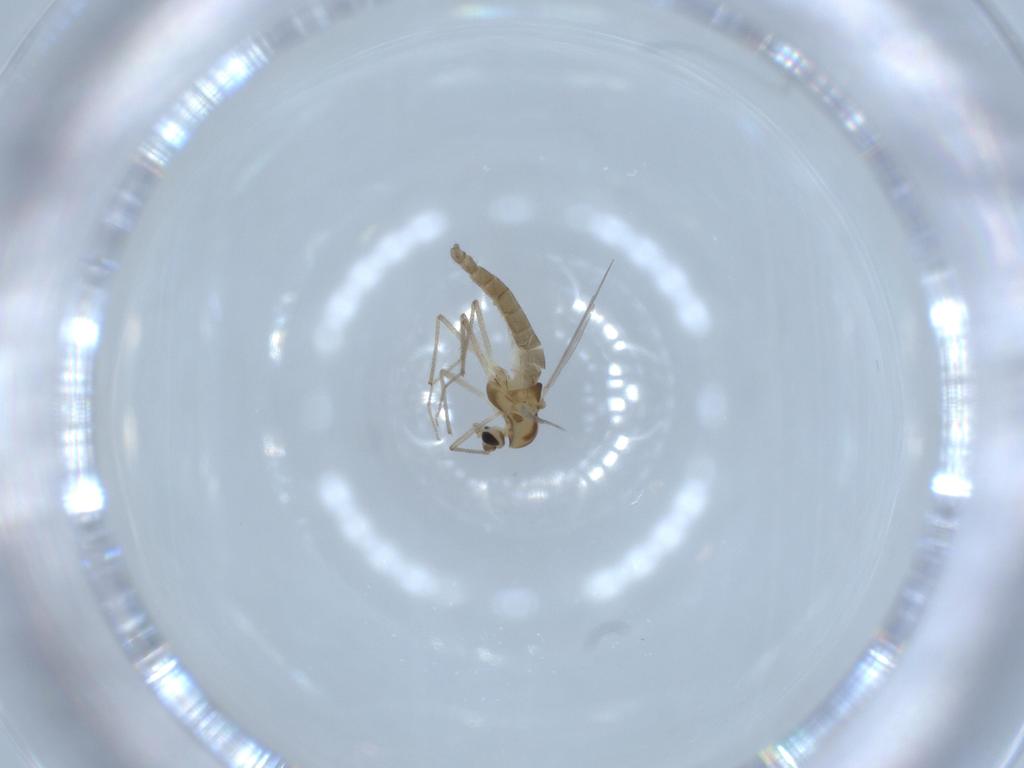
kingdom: Animalia
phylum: Arthropoda
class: Insecta
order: Diptera
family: Chironomidae
